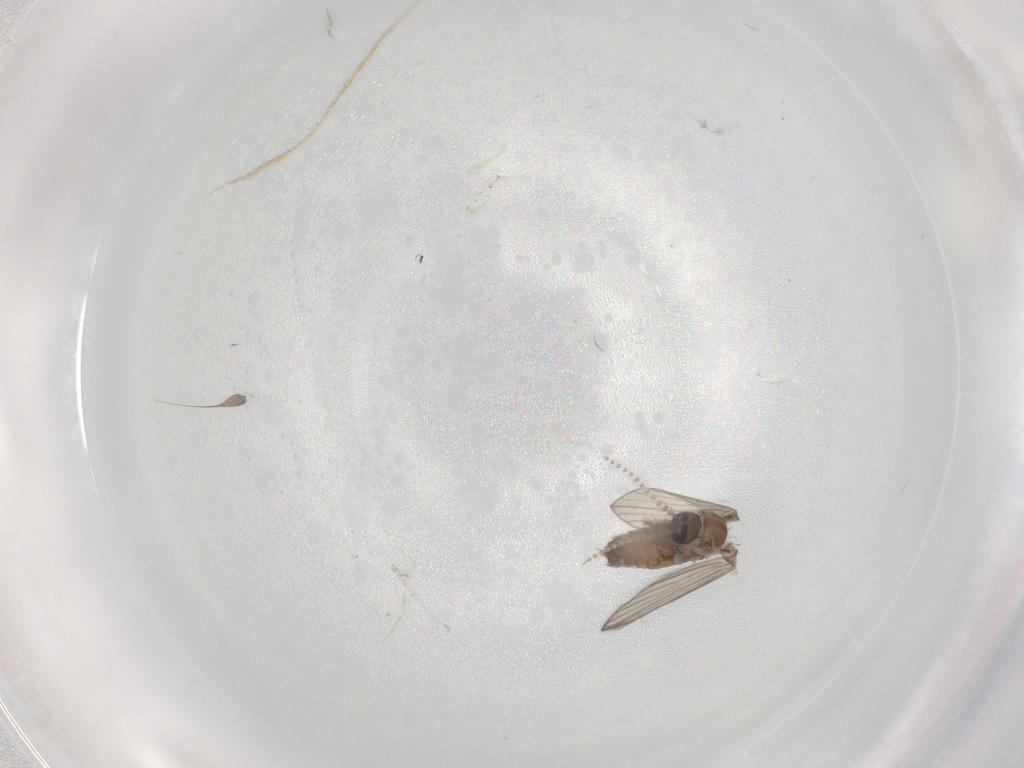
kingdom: Animalia
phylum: Arthropoda
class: Insecta
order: Diptera
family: Psychodidae
